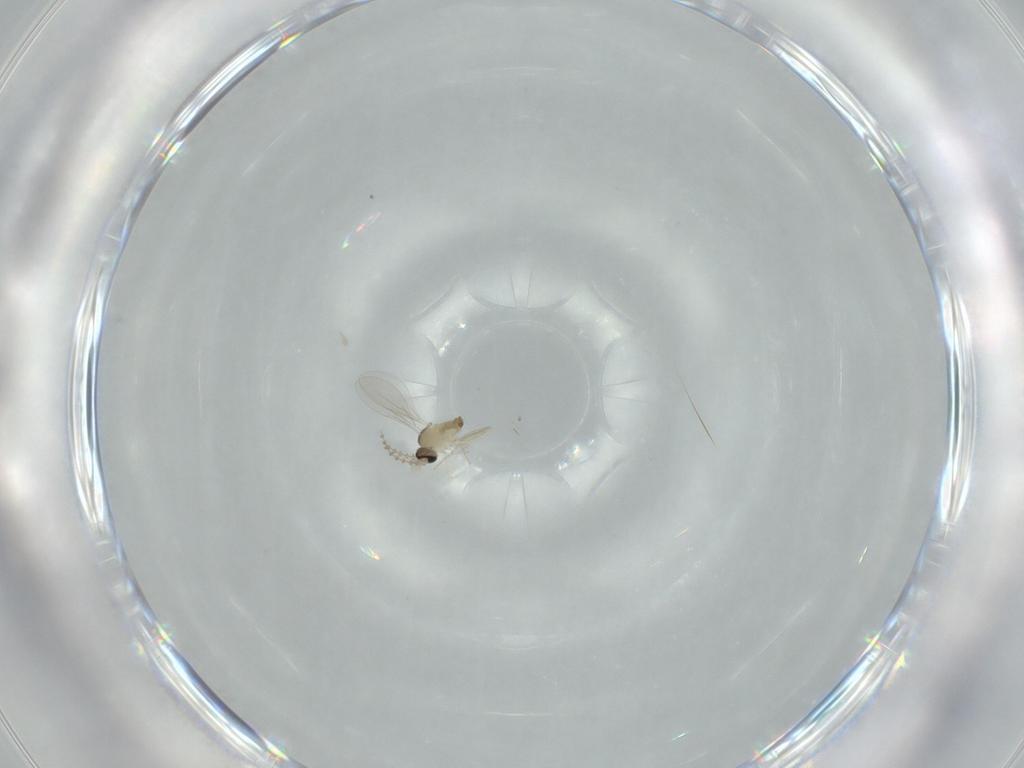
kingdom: Animalia
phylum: Arthropoda
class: Insecta
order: Diptera
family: Cecidomyiidae
